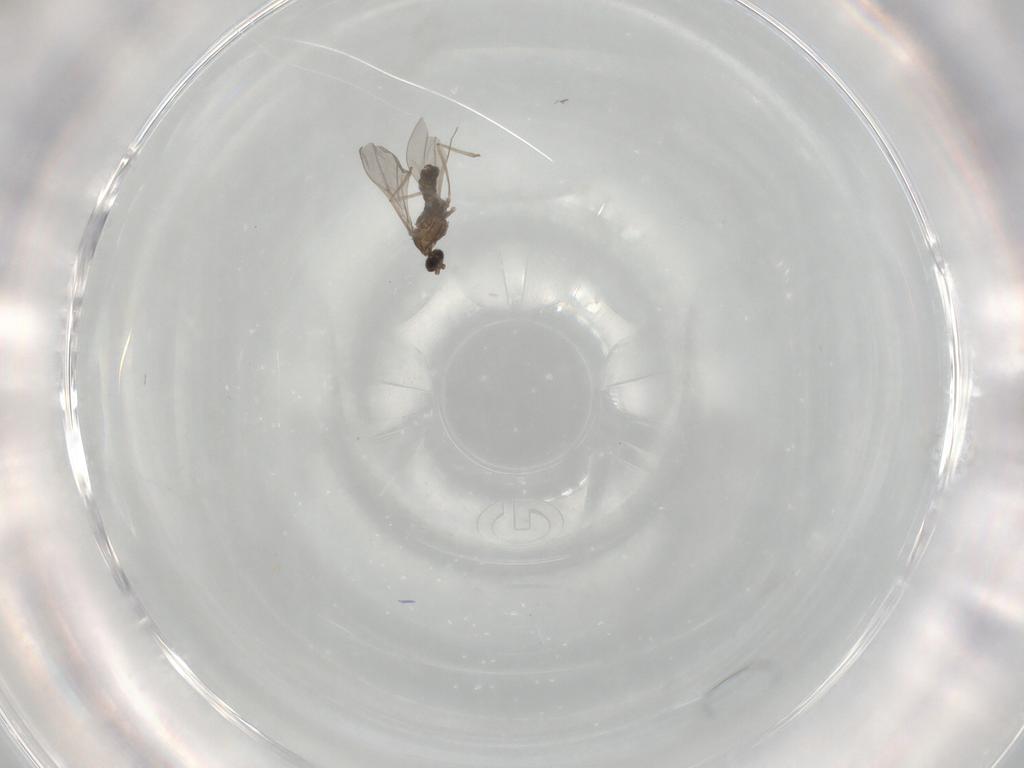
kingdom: Animalia
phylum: Arthropoda
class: Insecta
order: Diptera
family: Cecidomyiidae
